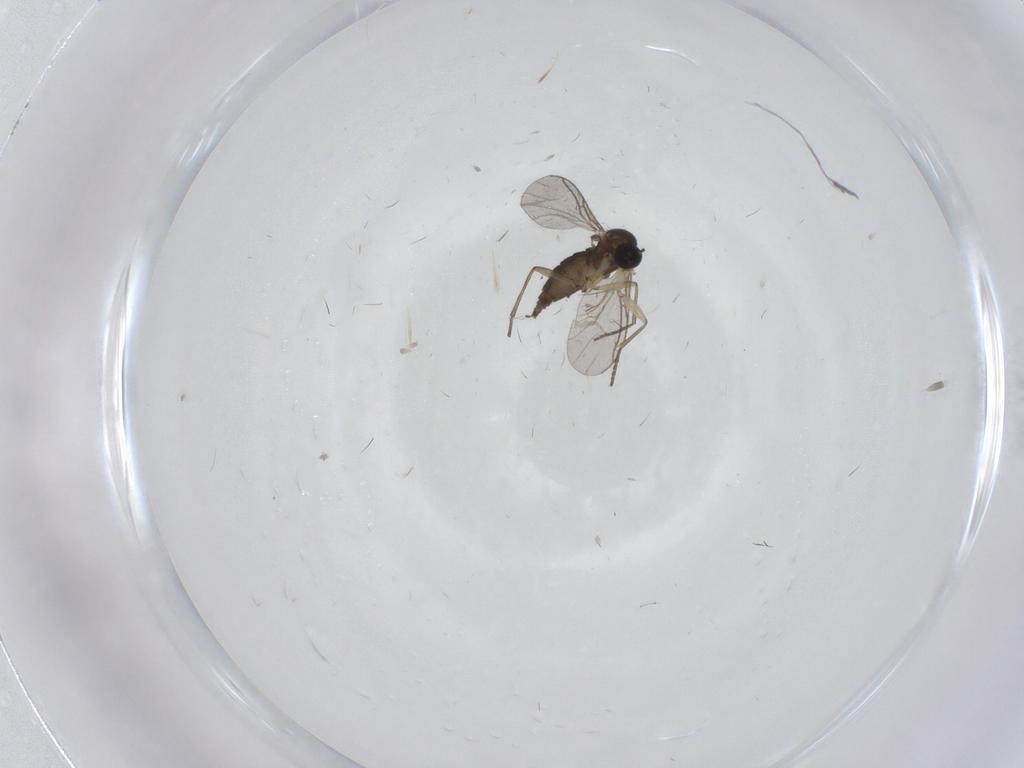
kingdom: Animalia
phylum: Arthropoda
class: Insecta
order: Diptera
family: Sciaridae
